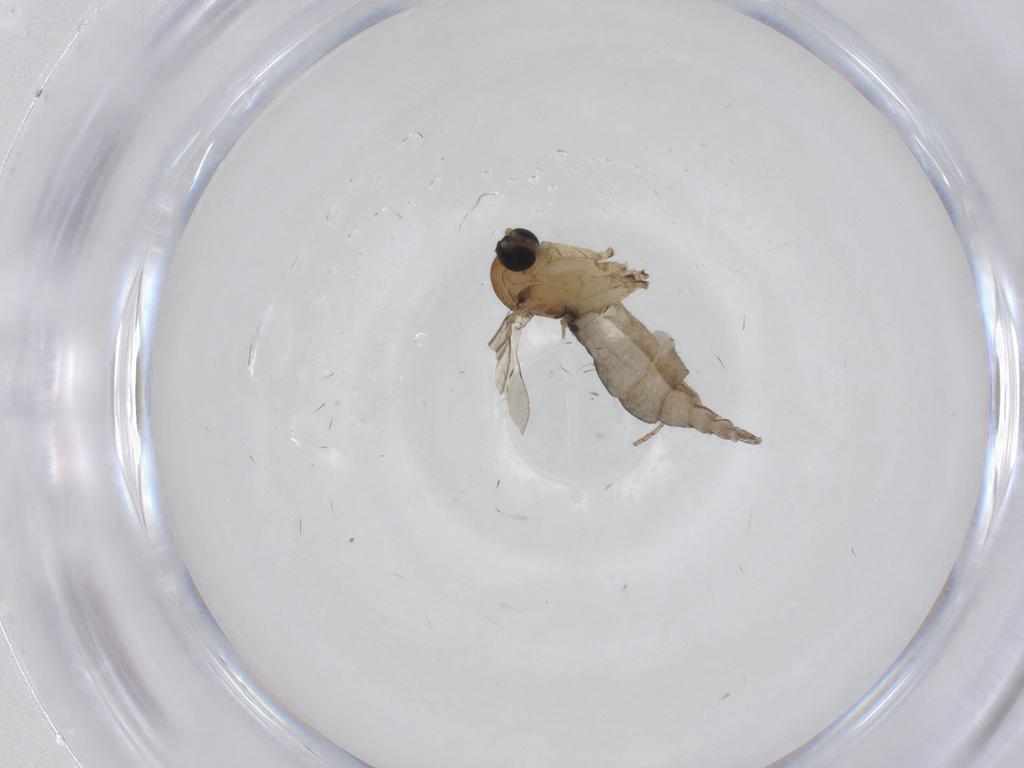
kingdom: Animalia
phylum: Arthropoda
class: Insecta
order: Diptera
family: Sciaridae
